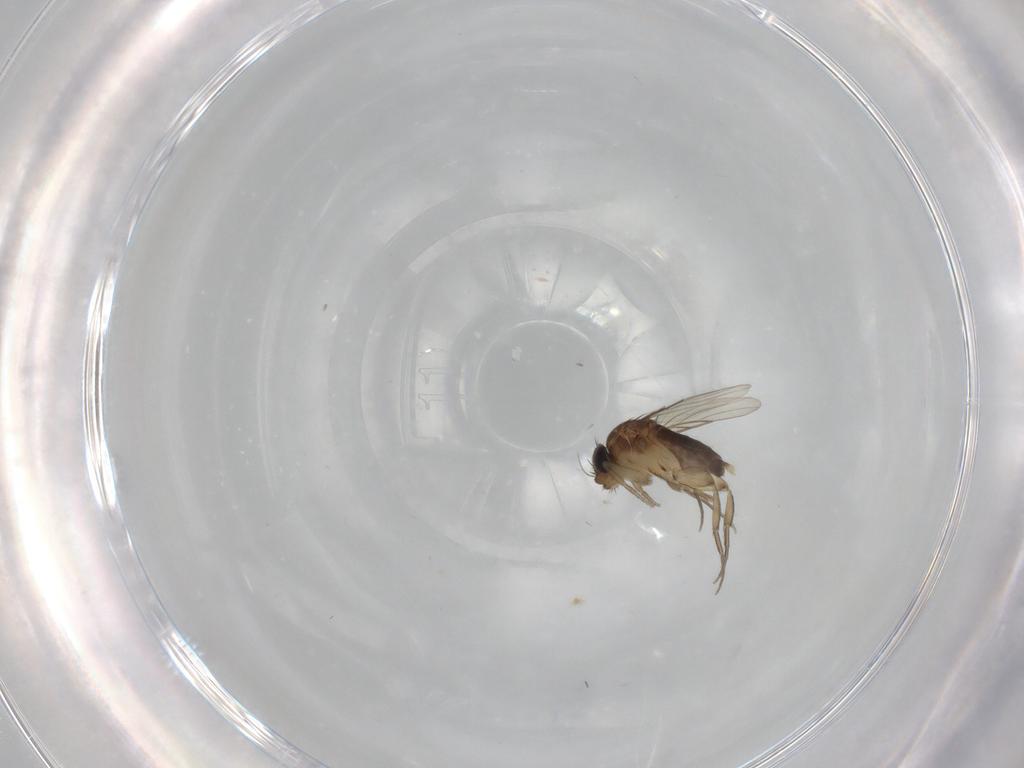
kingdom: Animalia
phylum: Arthropoda
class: Insecta
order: Diptera
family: Phoridae
